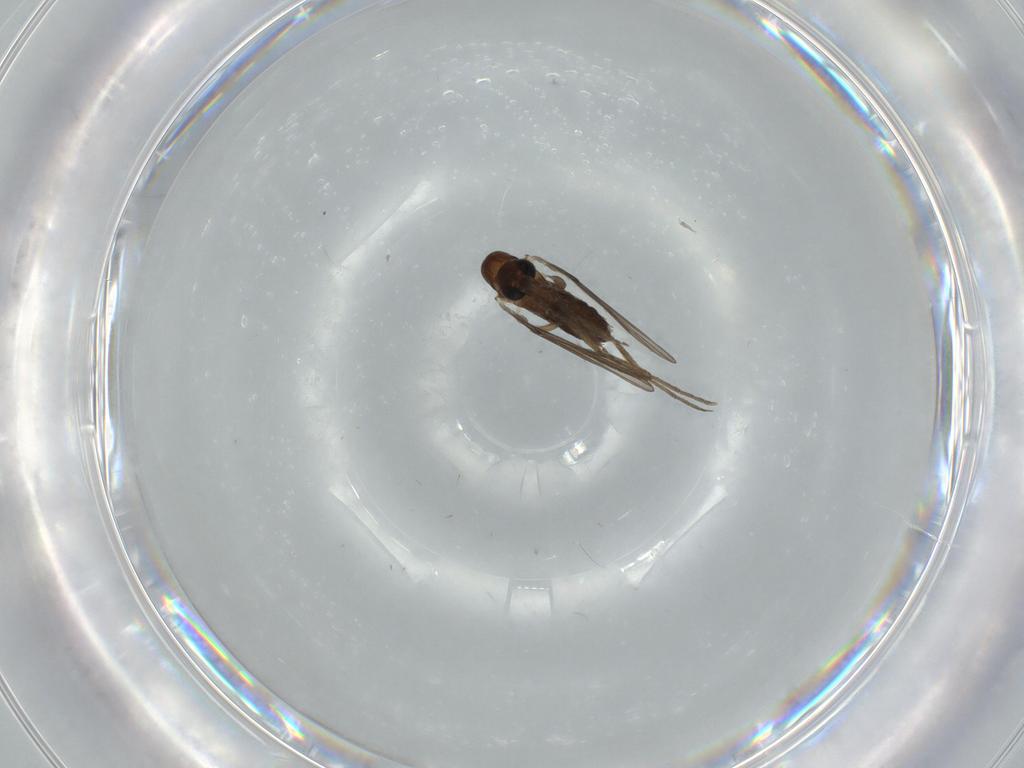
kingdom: Animalia
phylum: Arthropoda
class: Insecta
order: Diptera
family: Psychodidae
